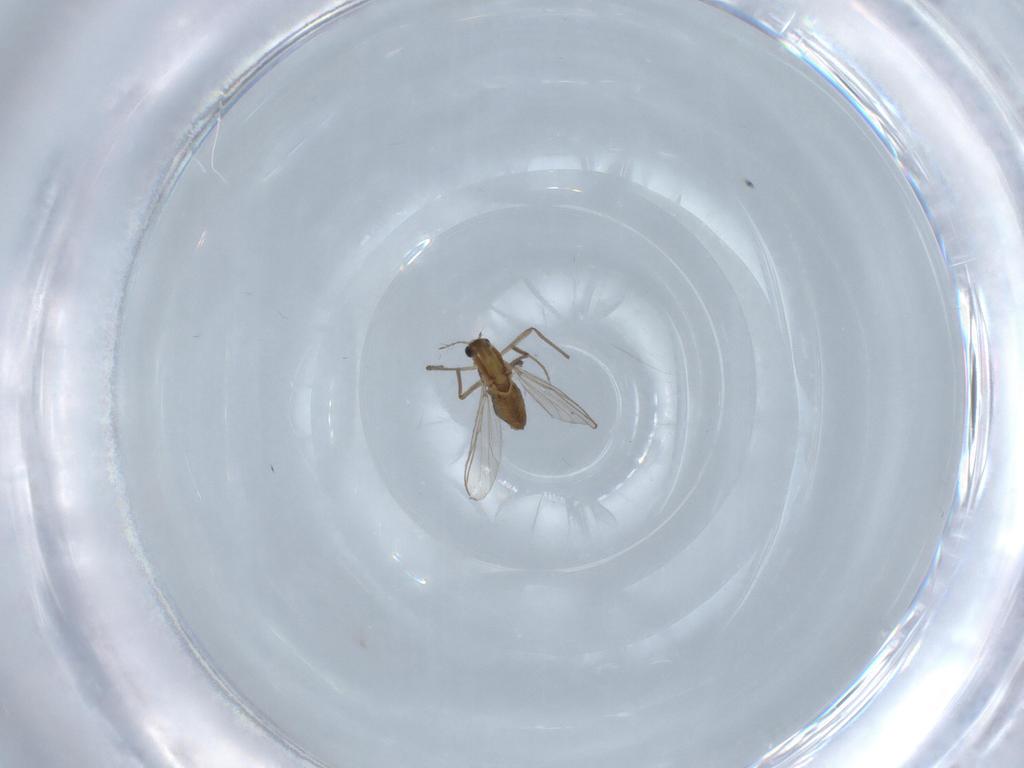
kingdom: Animalia
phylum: Arthropoda
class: Insecta
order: Diptera
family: Chironomidae
